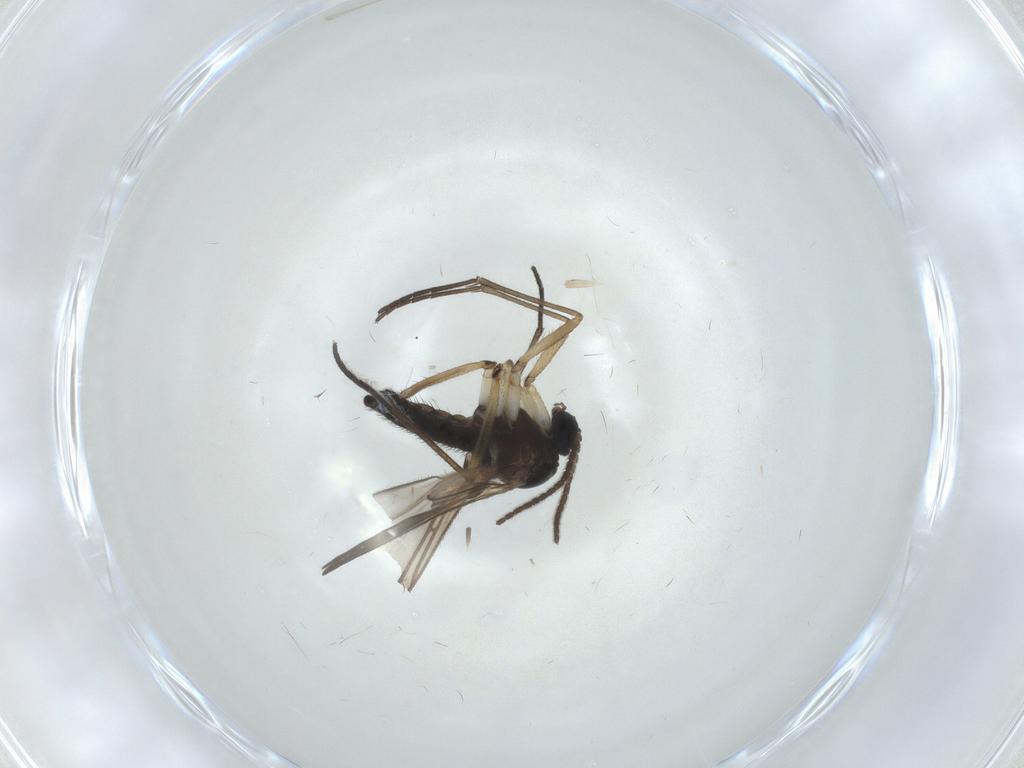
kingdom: Animalia
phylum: Arthropoda
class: Insecta
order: Diptera
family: Sciaridae
